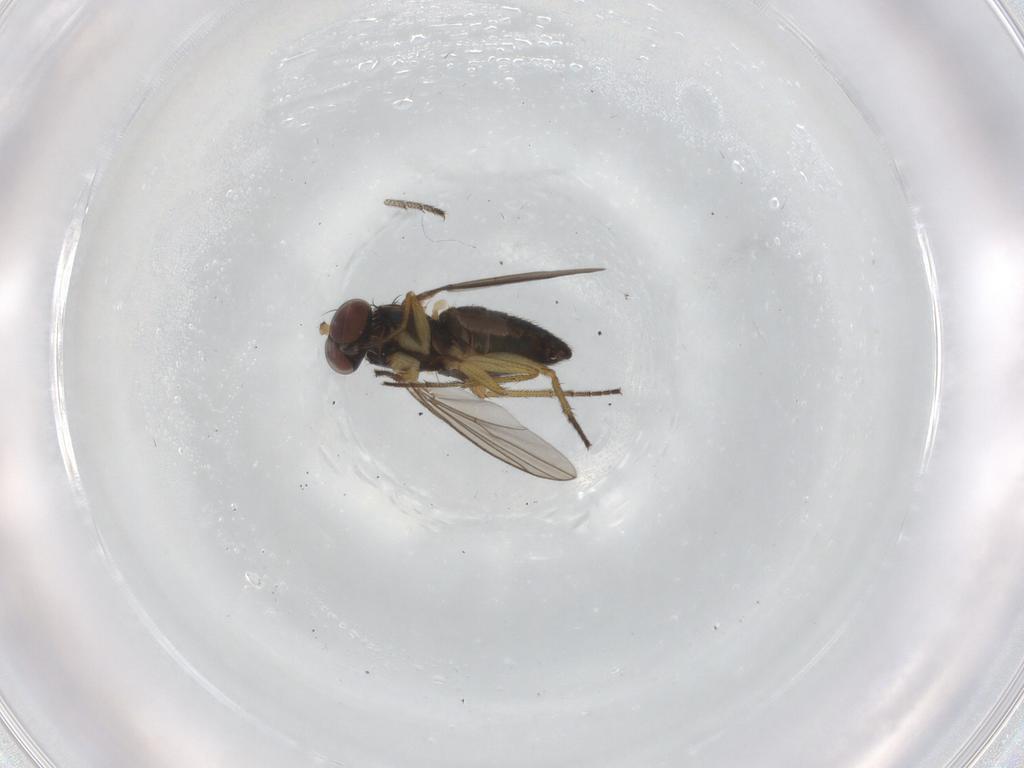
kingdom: Animalia
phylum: Arthropoda
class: Insecta
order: Diptera
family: Dolichopodidae
